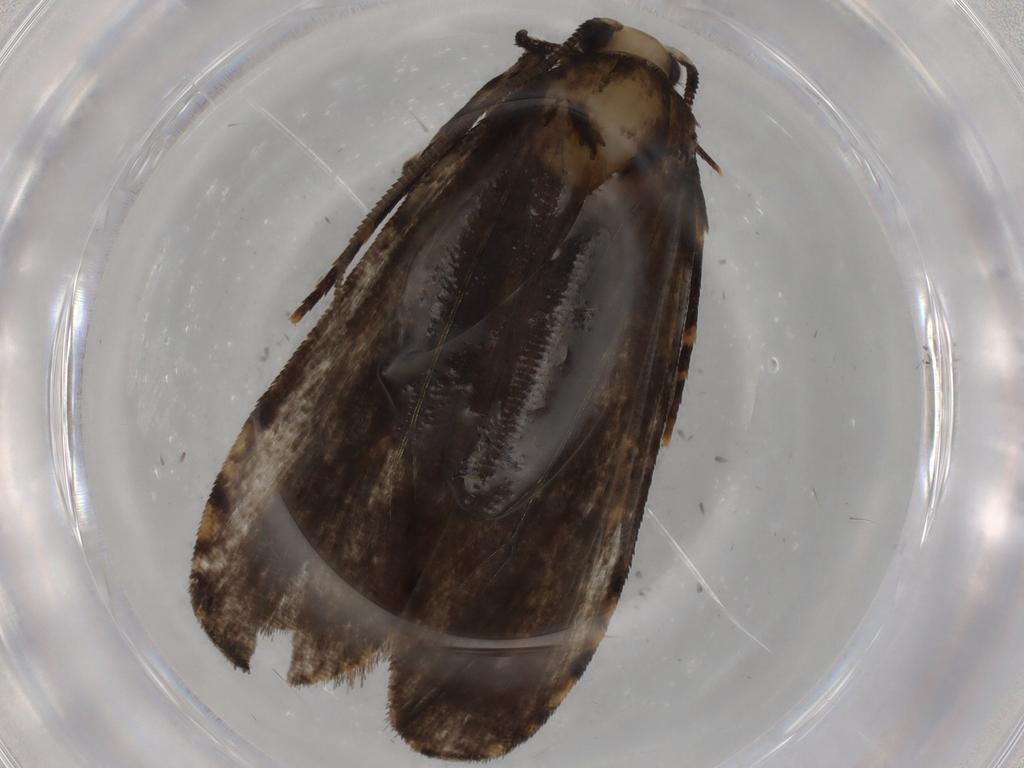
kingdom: Animalia
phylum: Arthropoda
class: Insecta
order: Lepidoptera
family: Tineidae
